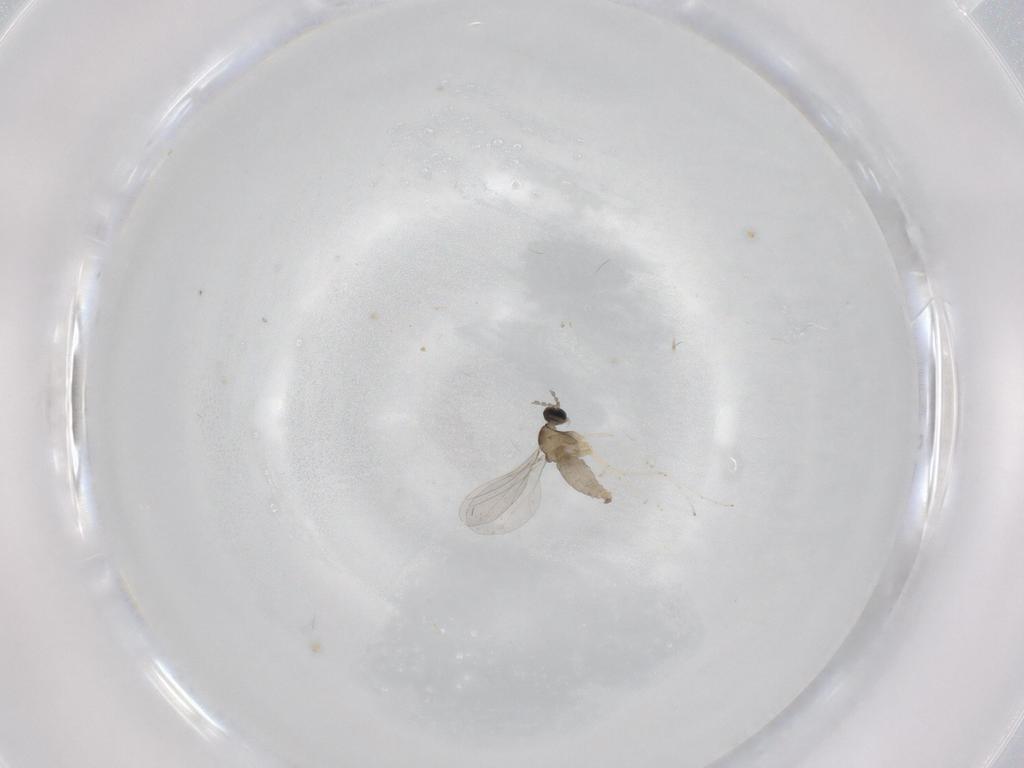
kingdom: Animalia
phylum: Arthropoda
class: Insecta
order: Diptera
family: Cecidomyiidae
